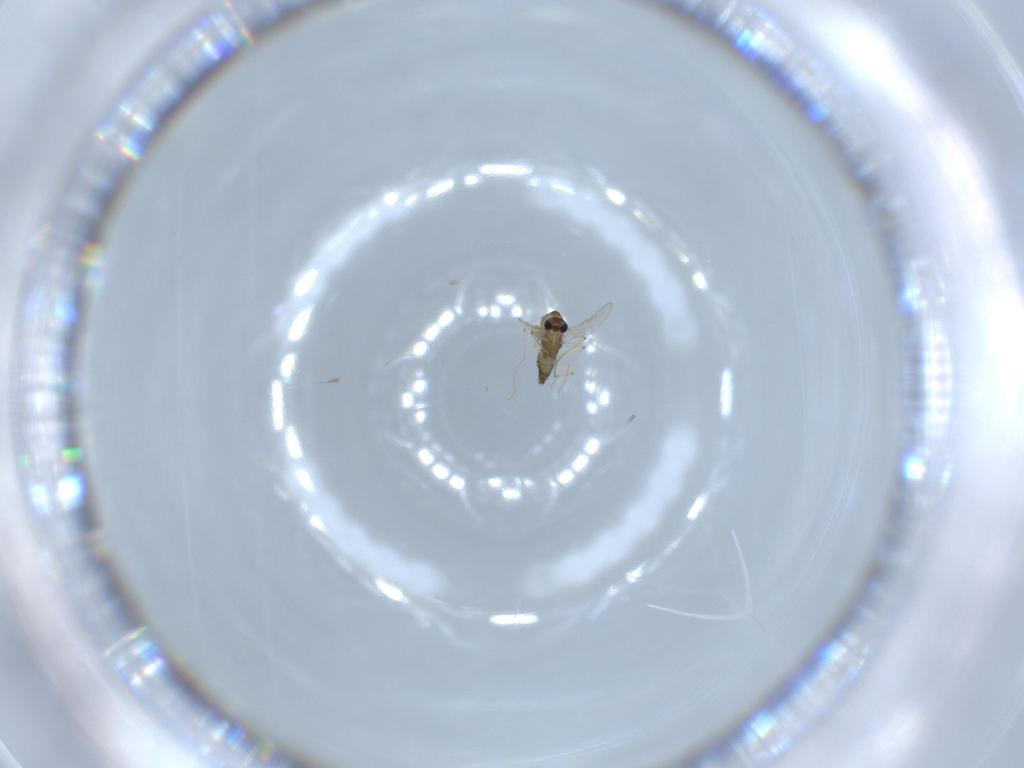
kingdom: Animalia
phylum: Arthropoda
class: Insecta
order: Diptera
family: Chironomidae
